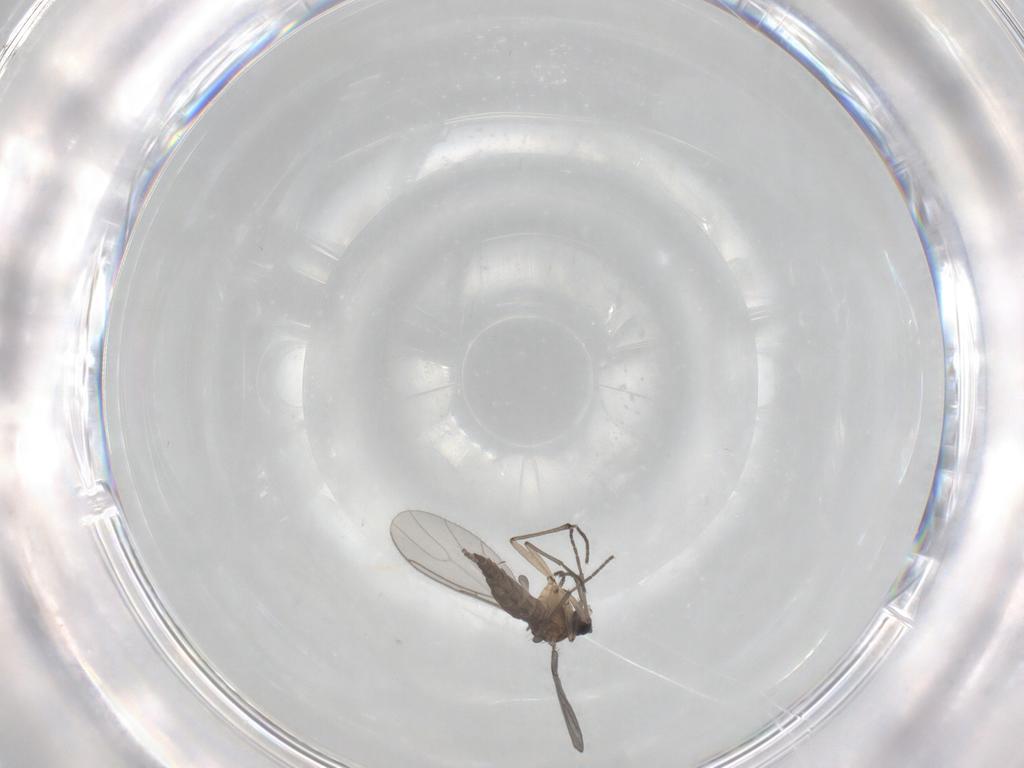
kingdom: Animalia
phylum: Arthropoda
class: Insecta
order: Diptera
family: Sciaridae
